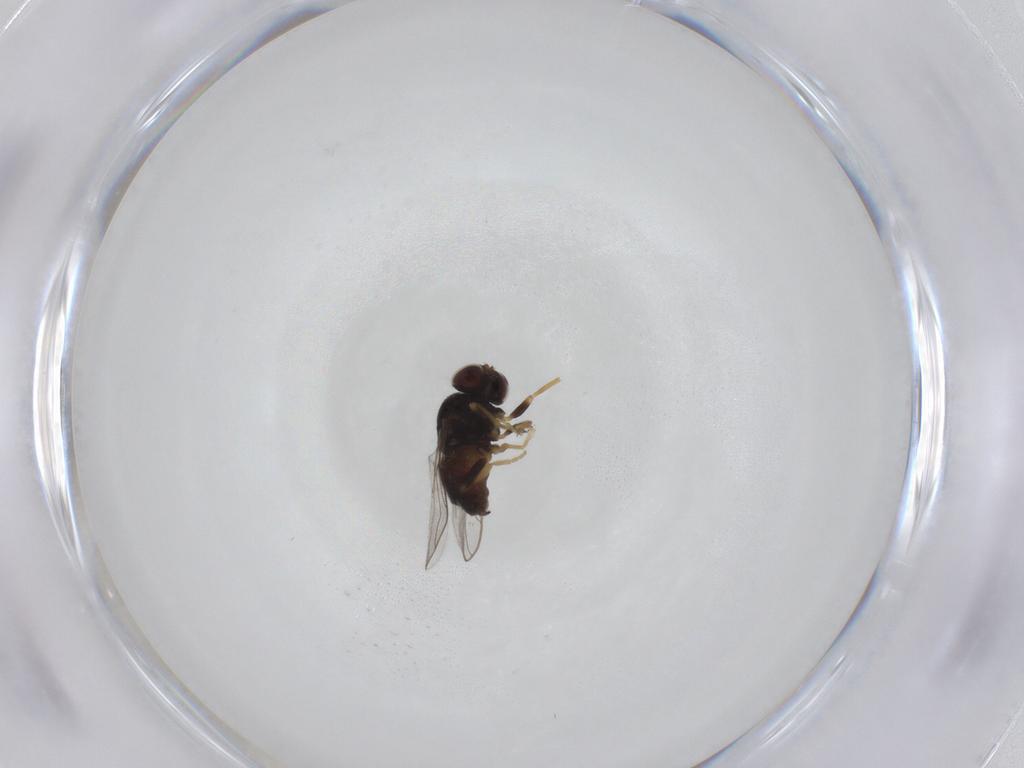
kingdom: Animalia
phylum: Arthropoda
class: Insecta
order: Diptera
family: Chloropidae
